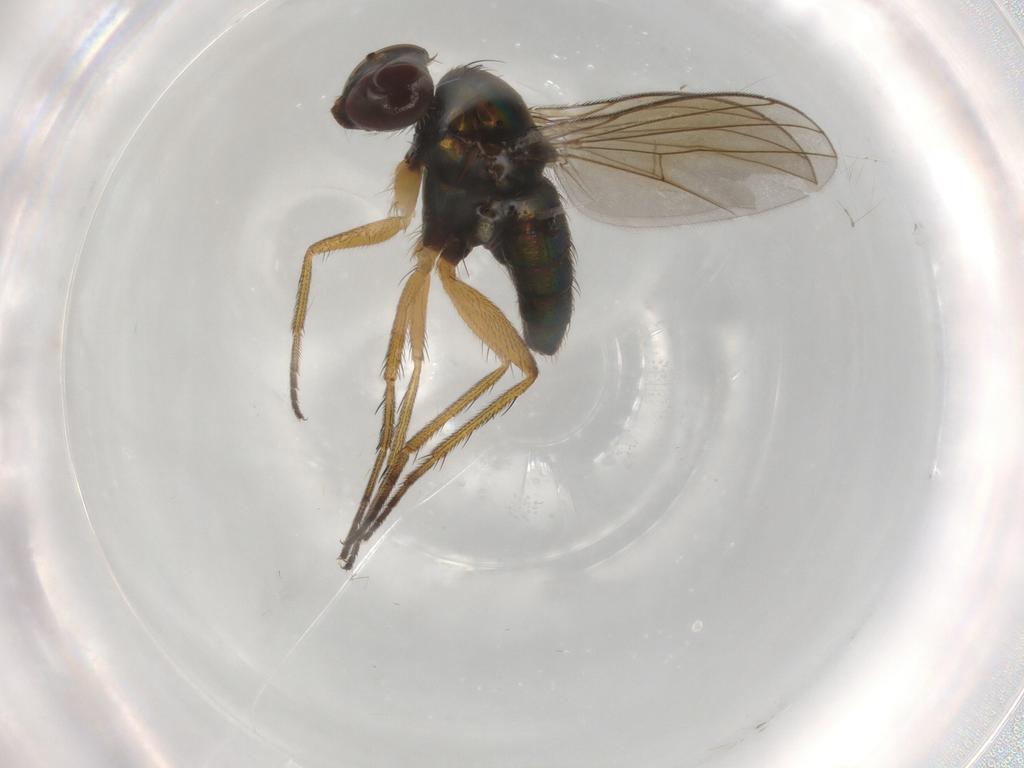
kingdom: Animalia
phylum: Arthropoda
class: Insecta
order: Diptera
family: Dolichopodidae
